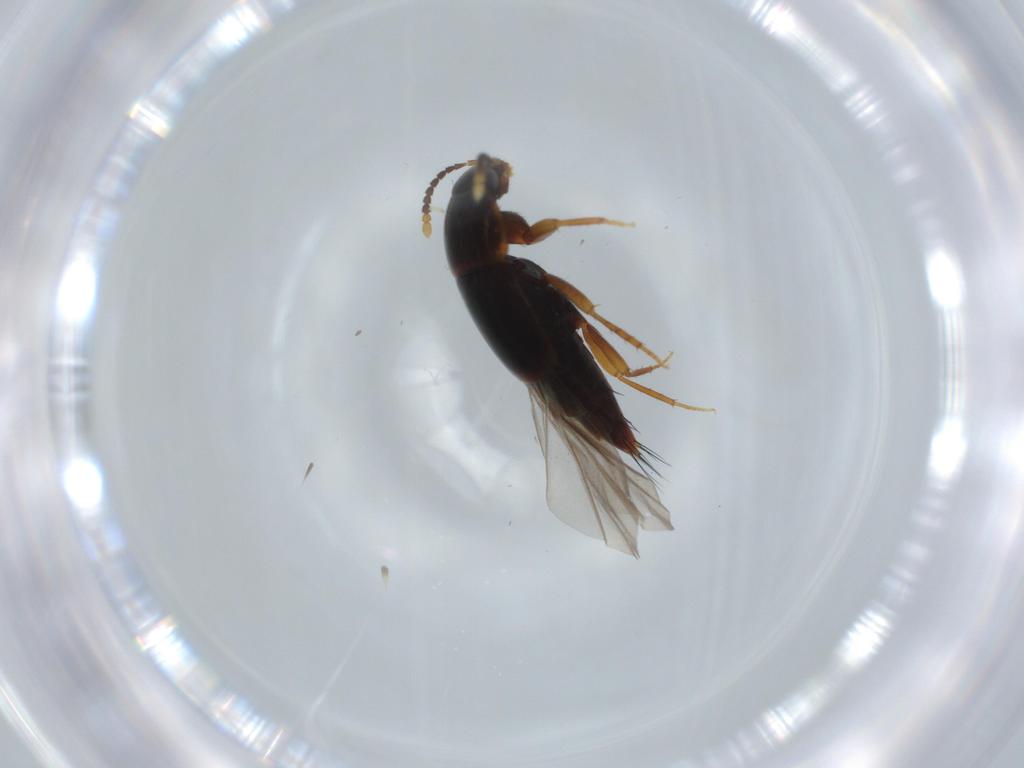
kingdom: Animalia
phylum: Arthropoda
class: Insecta
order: Coleoptera
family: Staphylinidae
